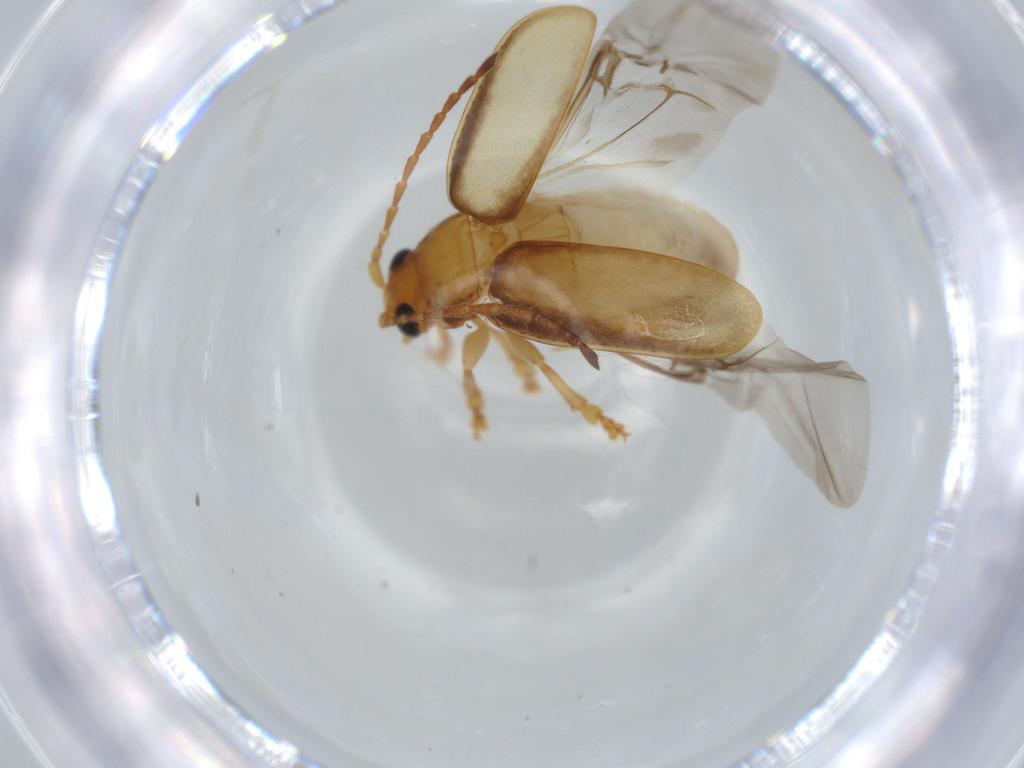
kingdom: Animalia
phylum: Arthropoda
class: Insecta
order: Coleoptera
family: Chrysomelidae
